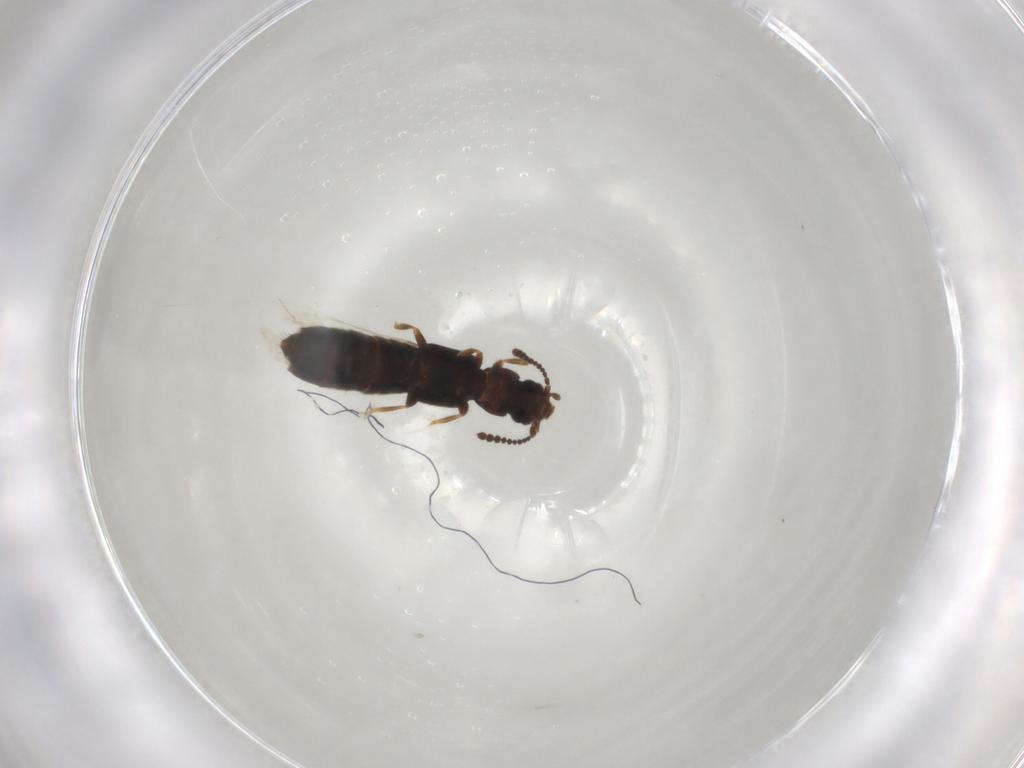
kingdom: Animalia
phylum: Arthropoda
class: Insecta
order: Coleoptera
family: Staphylinidae
